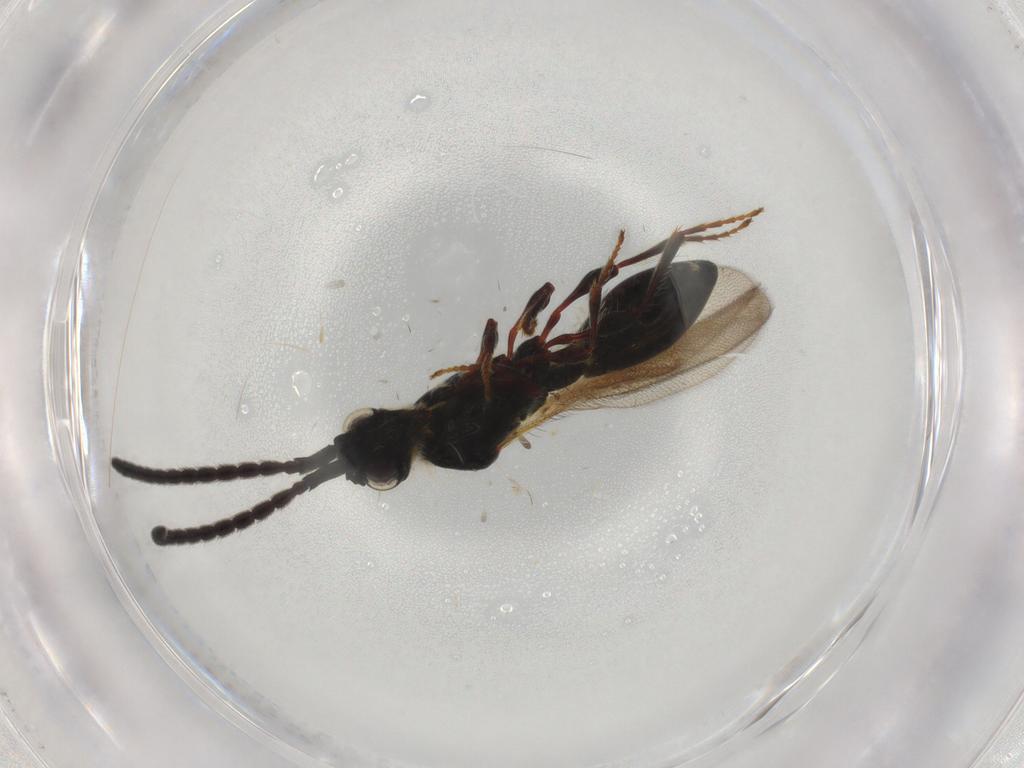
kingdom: Animalia
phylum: Arthropoda
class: Insecta
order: Hymenoptera
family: Diapriidae
